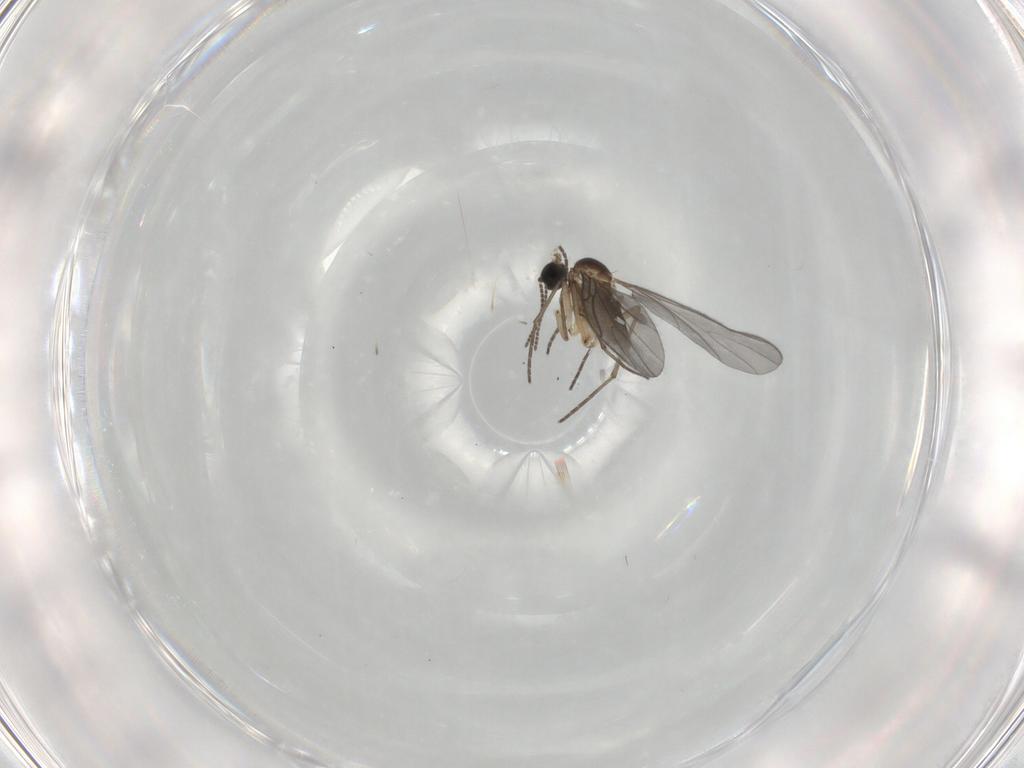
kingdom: Animalia
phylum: Arthropoda
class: Insecta
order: Diptera
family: Sciaridae
